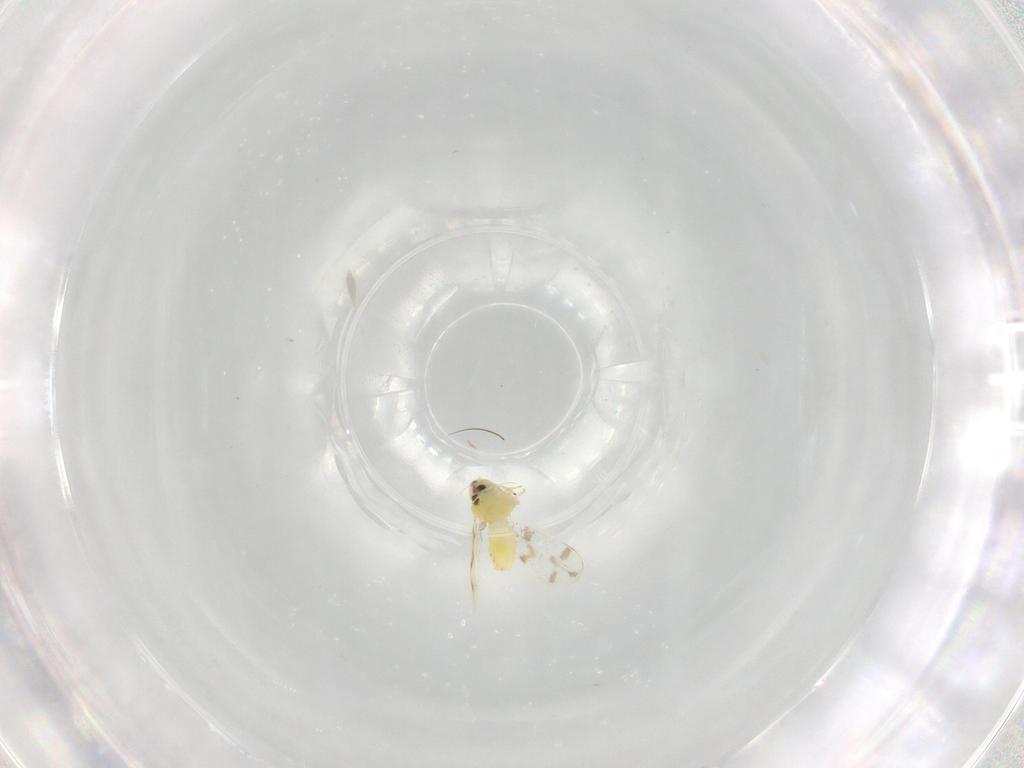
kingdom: Animalia
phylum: Arthropoda
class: Insecta
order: Hemiptera
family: Aleyrodidae
